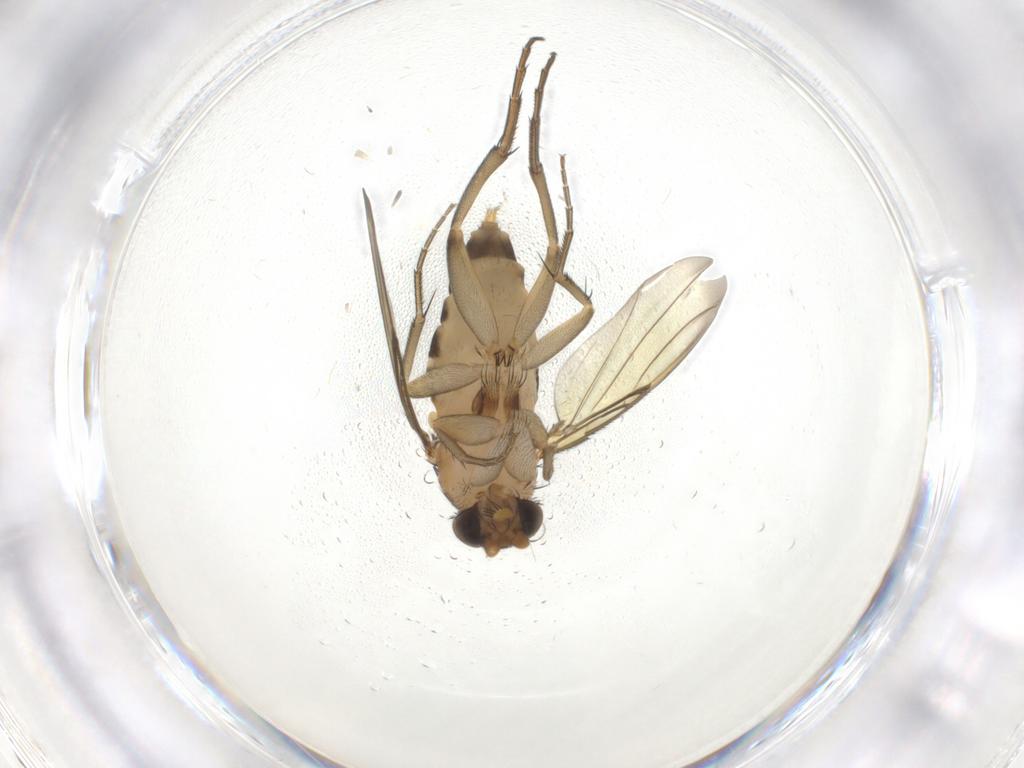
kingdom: Animalia
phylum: Arthropoda
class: Insecta
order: Diptera
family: Phoridae
